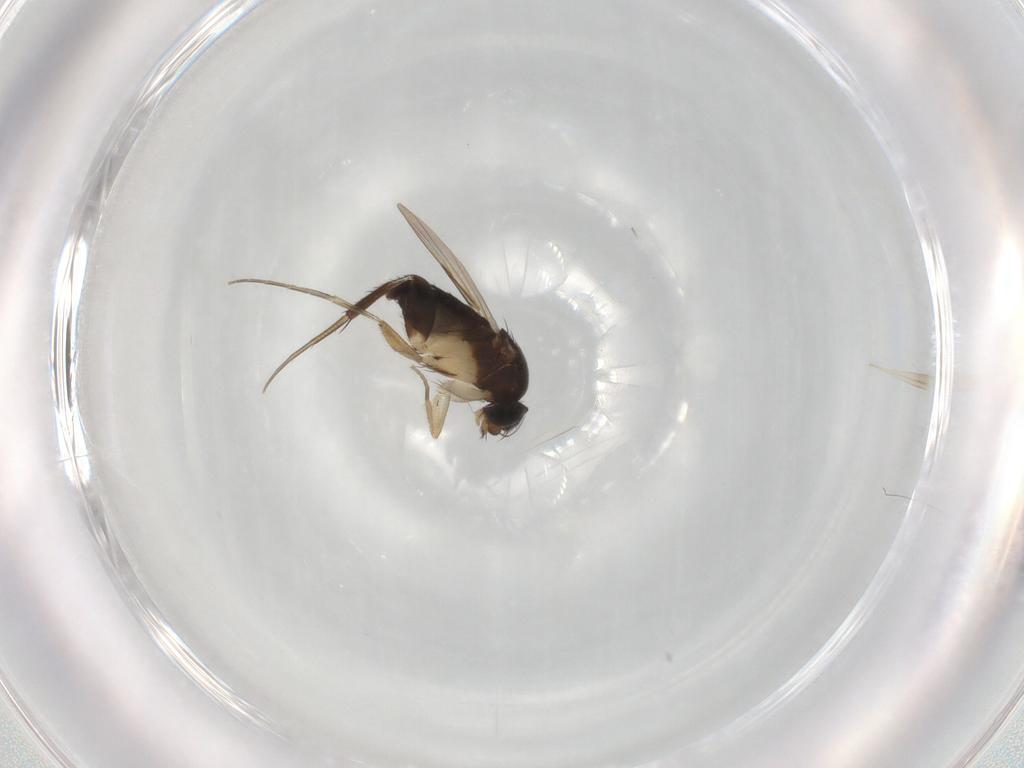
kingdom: Animalia
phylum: Arthropoda
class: Insecta
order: Diptera
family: Phoridae
